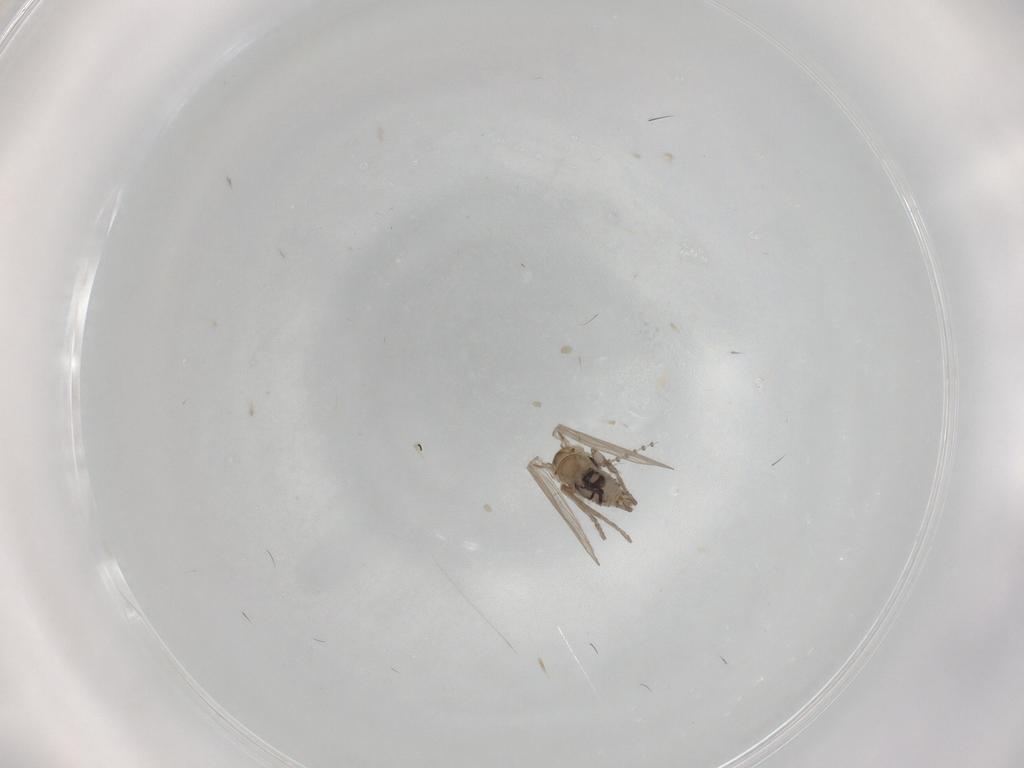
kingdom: Animalia
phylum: Arthropoda
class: Insecta
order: Diptera
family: Psychodidae
